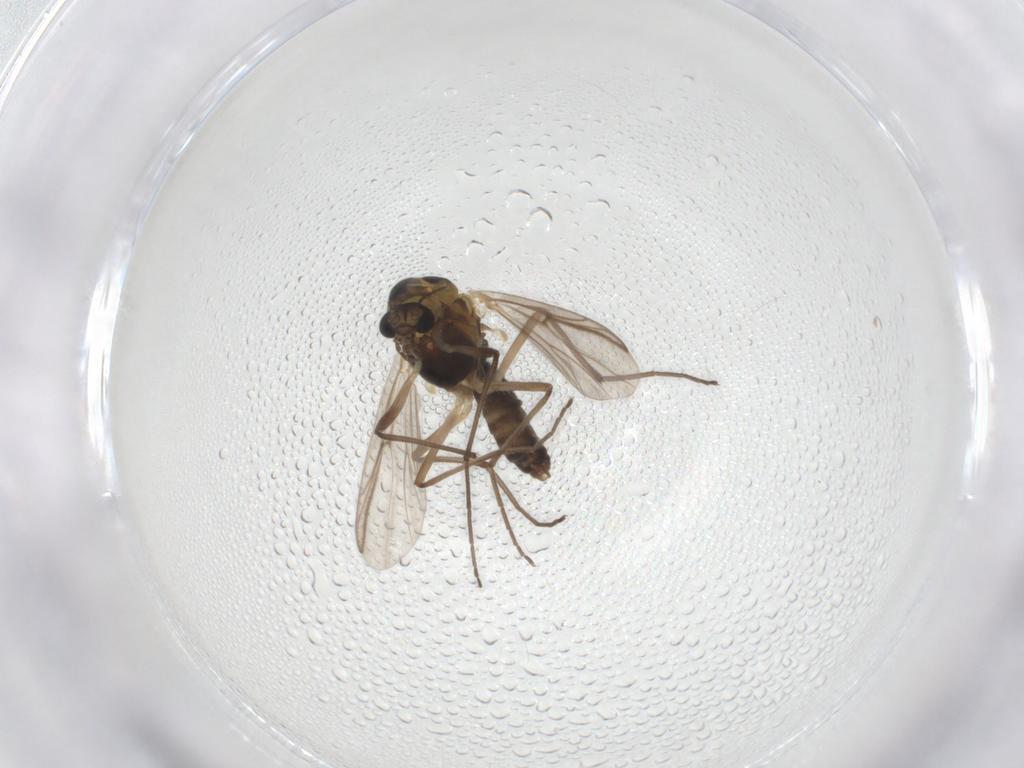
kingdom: Animalia
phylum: Arthropoda
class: Insecta
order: Diptera
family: Chironomidae
